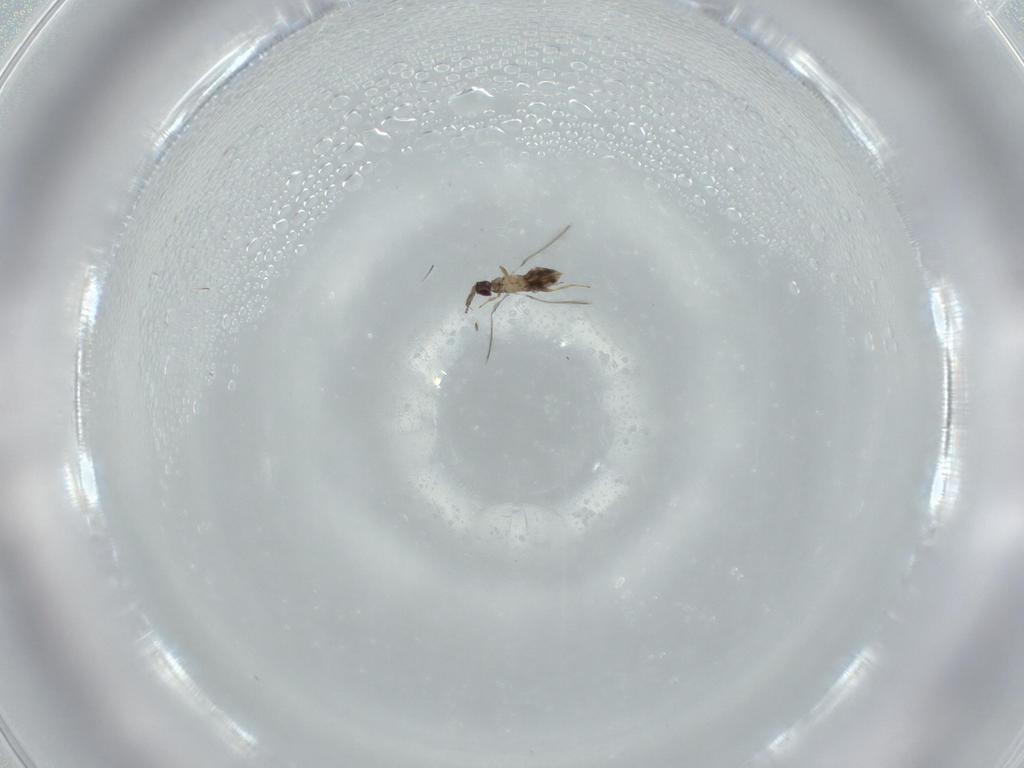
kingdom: Animalia
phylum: Arthropoda
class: Insecta
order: Hymenoptera
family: Mymaridae
